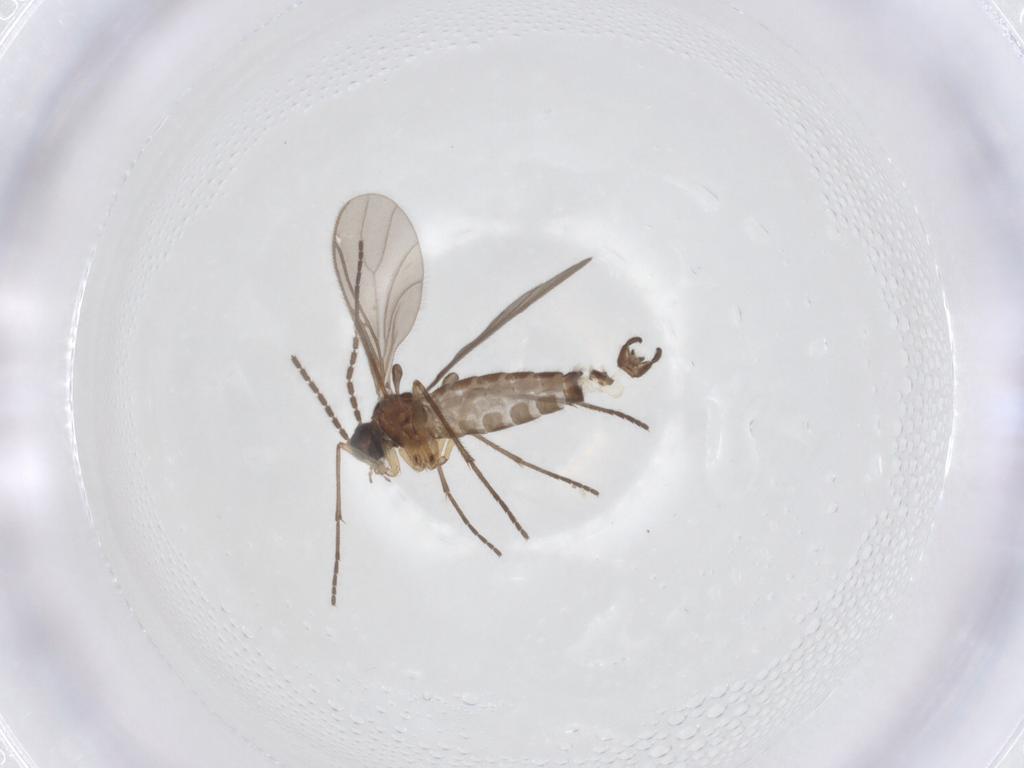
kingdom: Animalia
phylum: Arthropoda
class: Insecta
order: Diptera
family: Sciaridae
